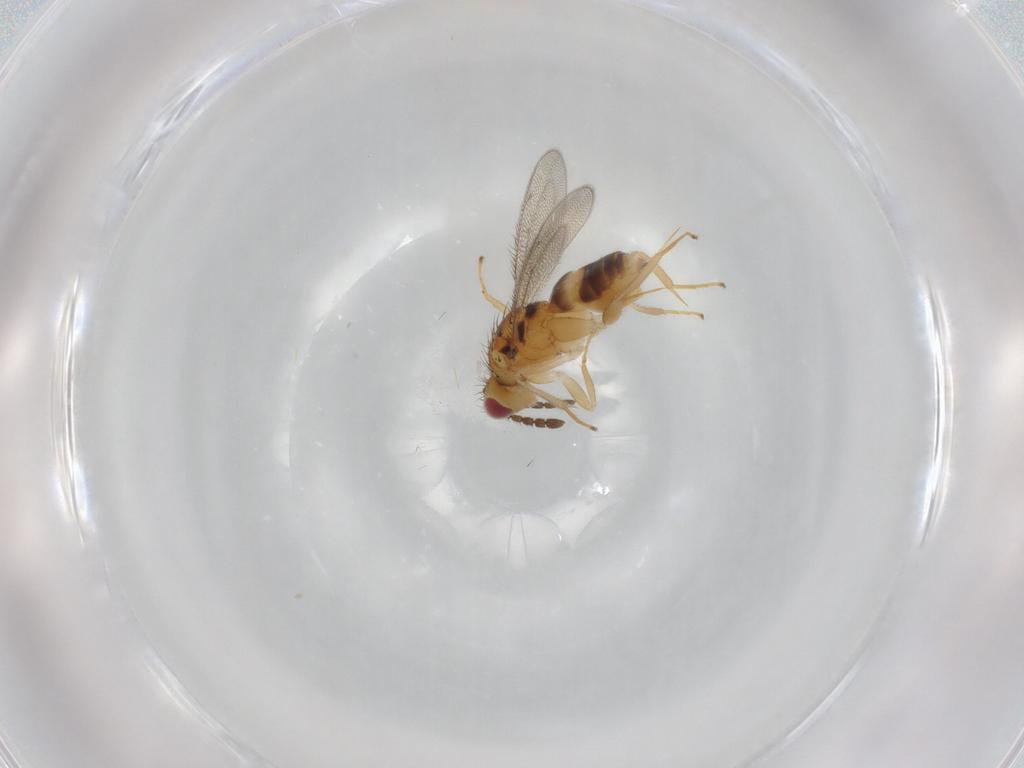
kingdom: Animalia
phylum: Arthropoda
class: Insecta
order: Hymenoptera
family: Eulophidae
